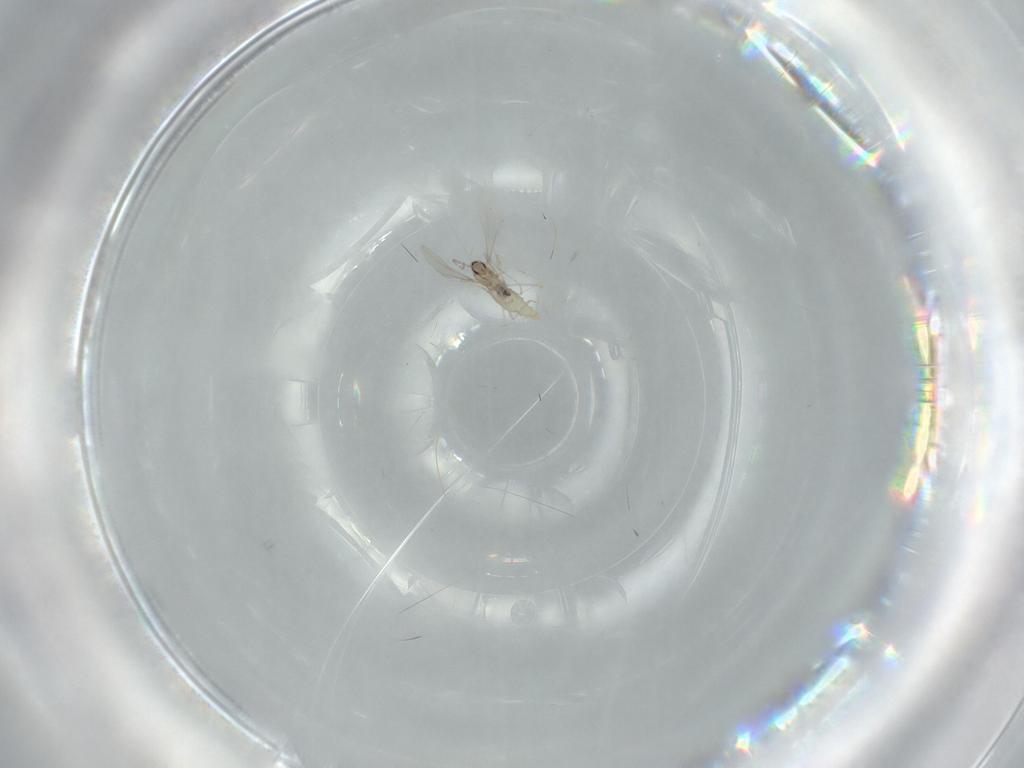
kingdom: Animalia
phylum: Arthropoda
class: Insecta
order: Diptera
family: Cecidomyiidae
